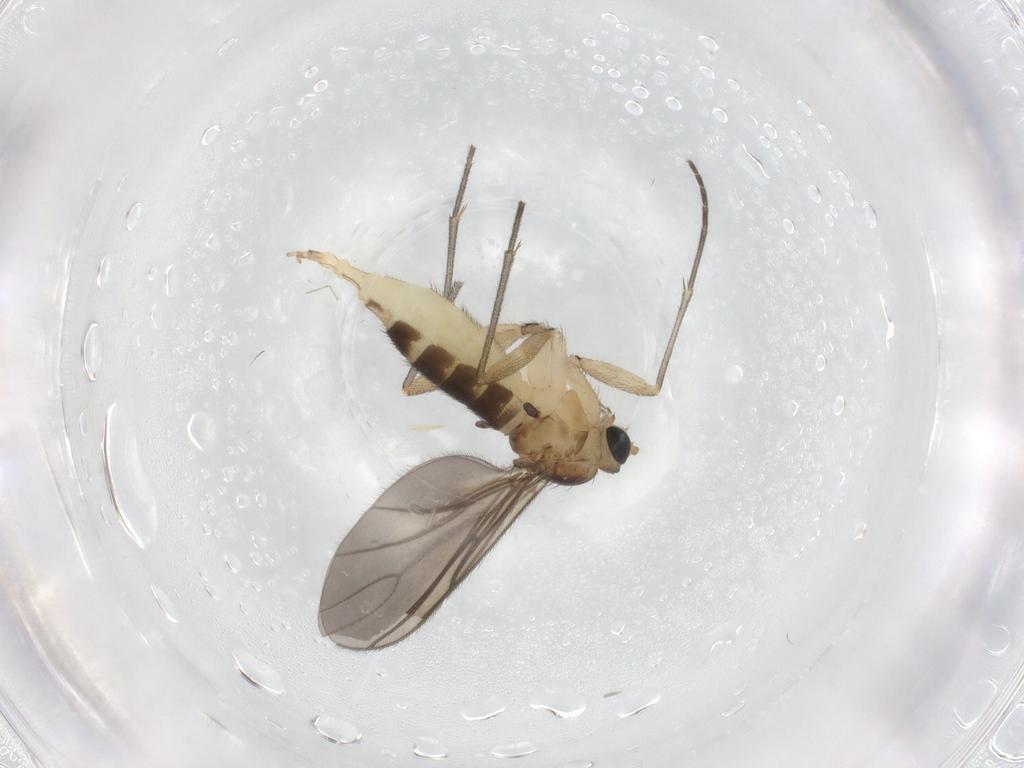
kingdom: Animalia
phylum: Arthropoda
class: Insecta
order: Diptera
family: Sciaridae
